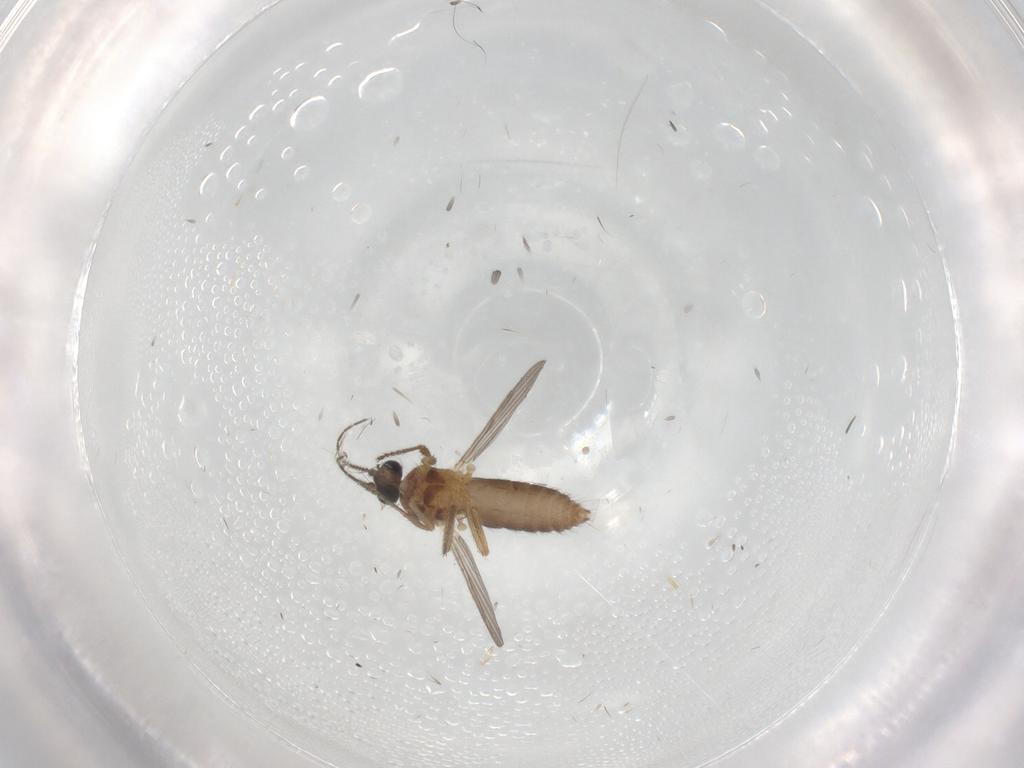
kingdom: Animalia
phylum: Arthropoda
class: Insecta
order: Diptera
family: Ceratopogonidae
